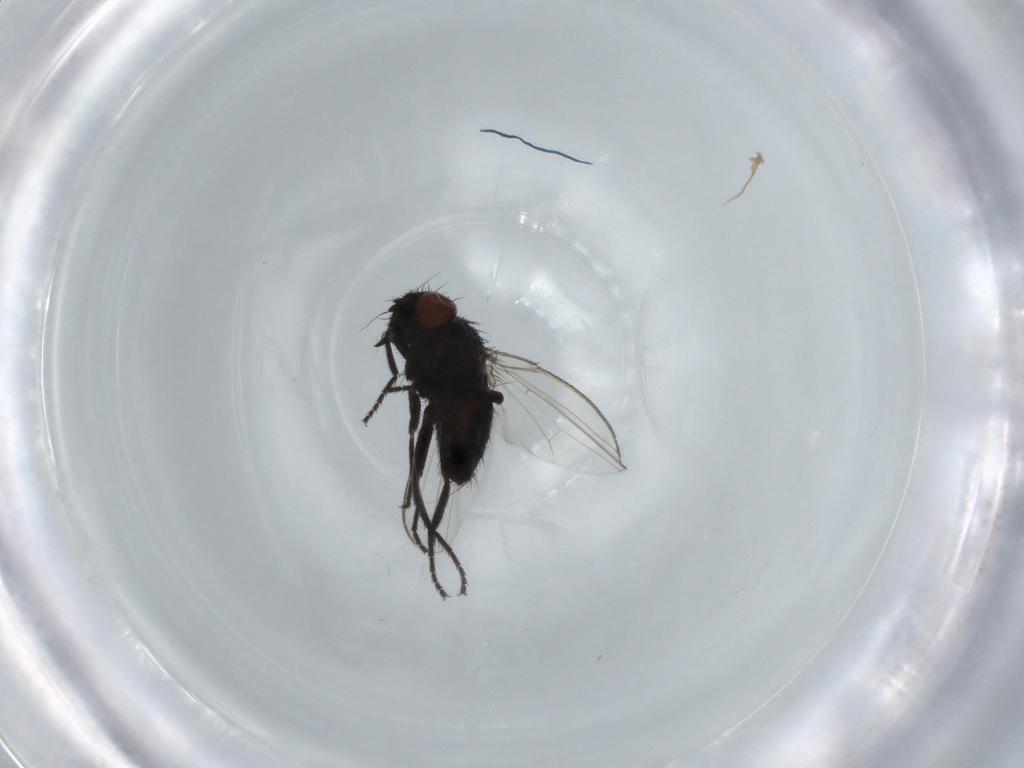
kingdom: Animalia
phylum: Arthropoda
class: Insecta
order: Diptera
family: Milichiidae
